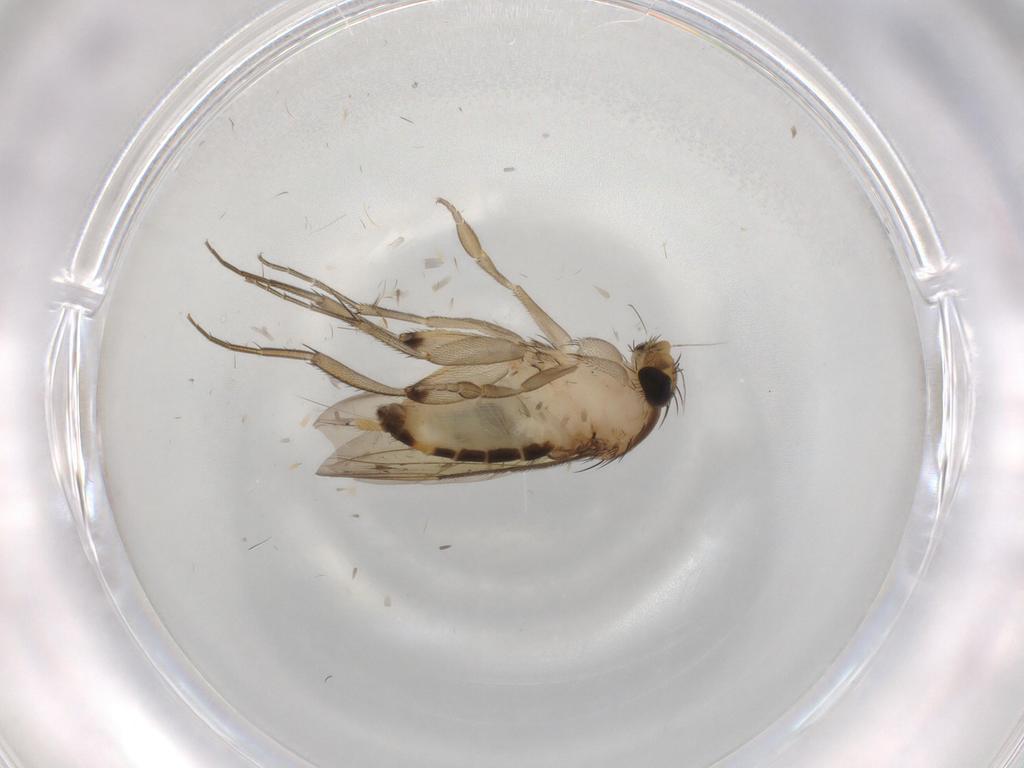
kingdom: Animalia
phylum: Arthropoda
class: Insecta
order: Diptera
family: Phoridae
